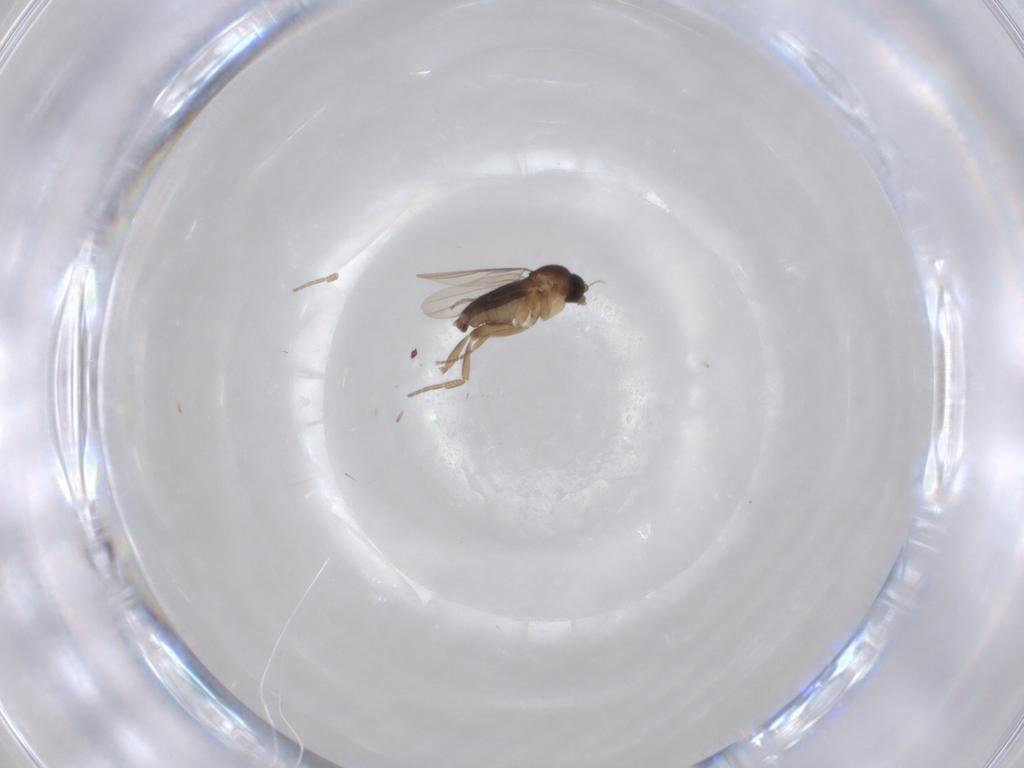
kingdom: Animalia
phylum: Arthropoda
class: Insecta
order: Diptera
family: Phoridae
